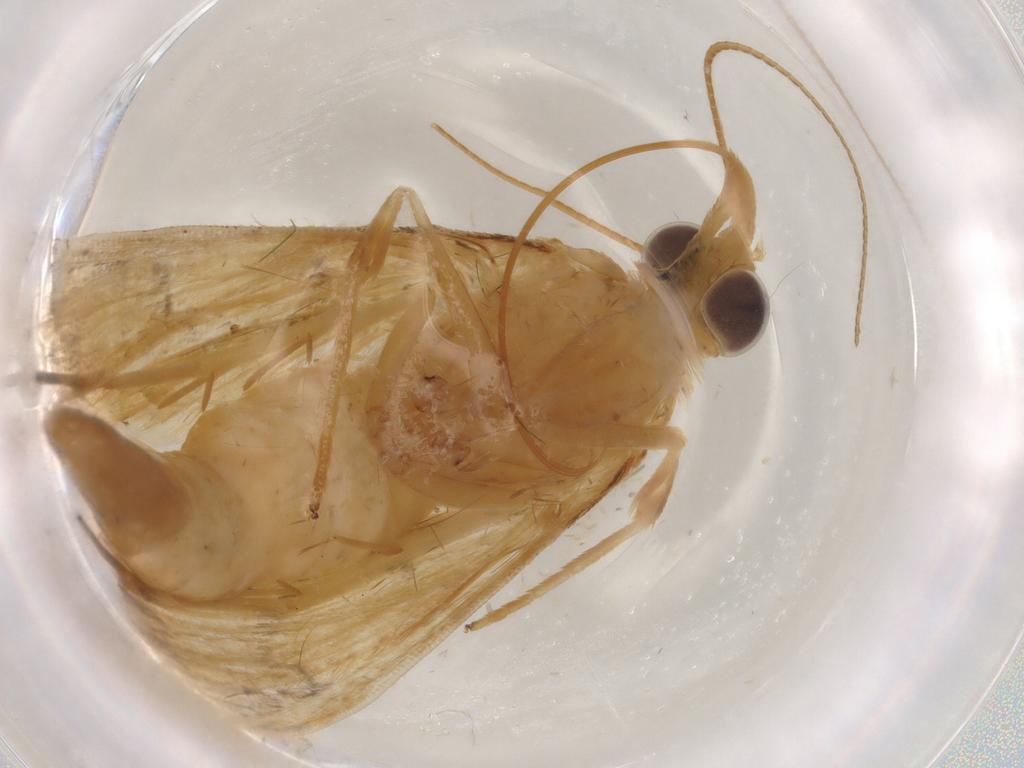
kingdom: Animalia
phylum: Arthropoda
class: Insecta
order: Lepidoptera
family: Crambidae
